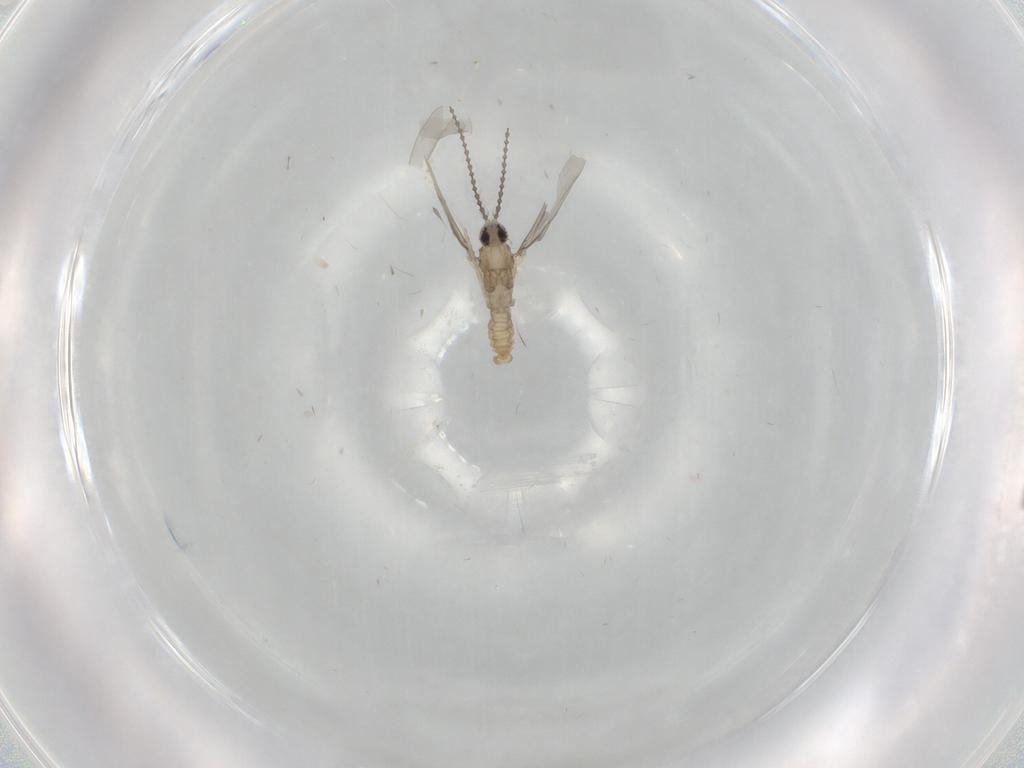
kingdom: Animalia
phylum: Arthropoda
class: Insecta
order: Diptera
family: Cecidomyiidae
